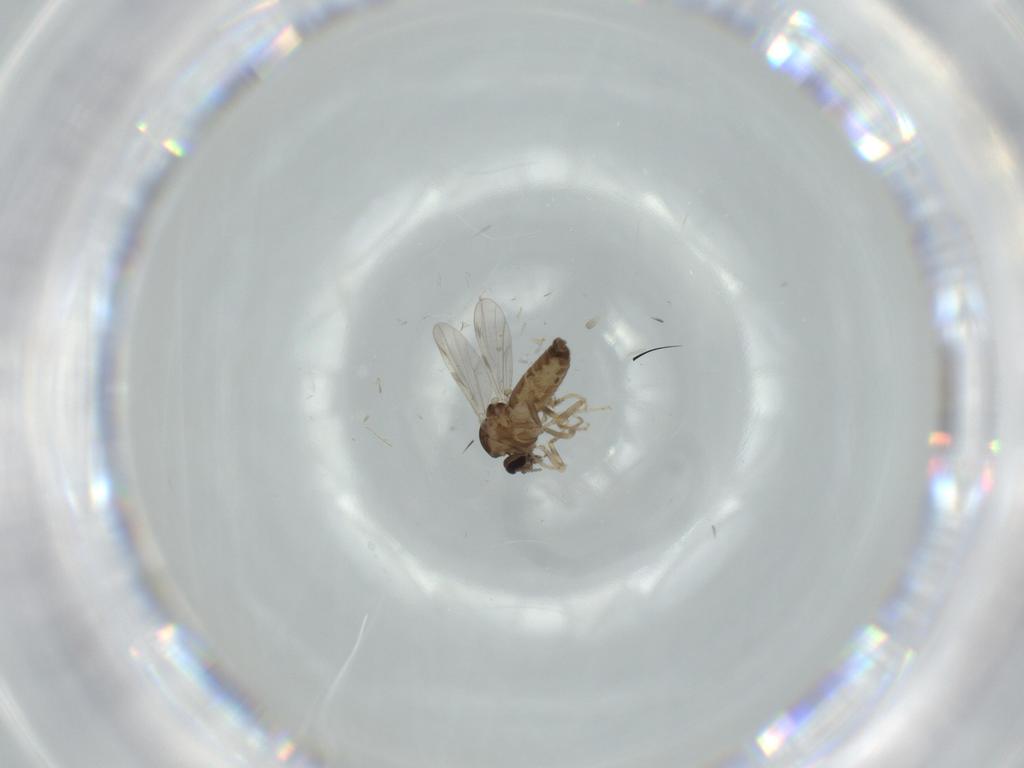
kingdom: Animalia
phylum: Arthropoda
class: Insecta
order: Diptera
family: Ceratopogonidae
